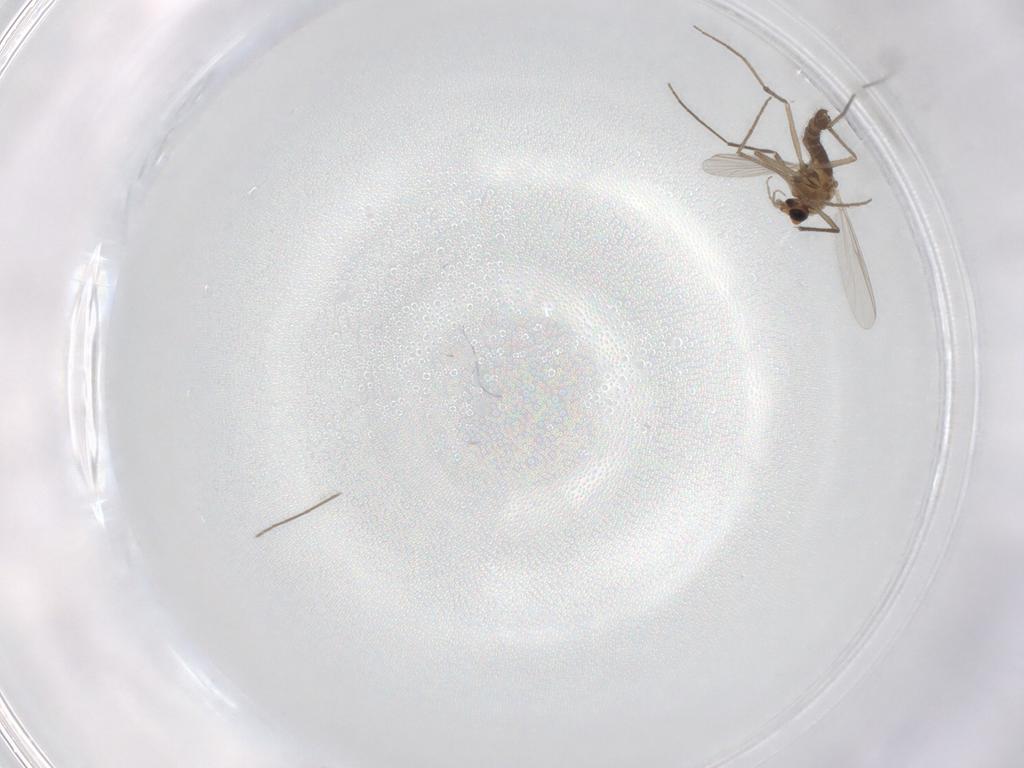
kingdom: Animalia
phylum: Arthropoda
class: Insecta
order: Diptera
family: Chironomidae
